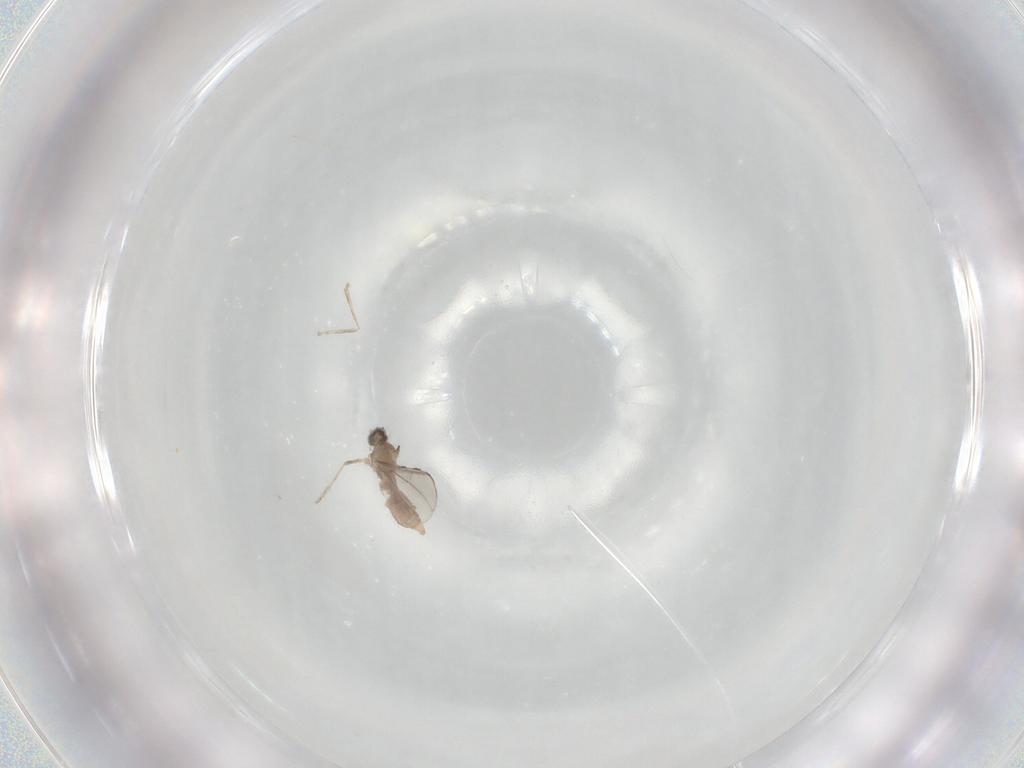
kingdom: Animalia
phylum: Arthropoda
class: Insecta
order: Diptera
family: Cecidomyiidae
